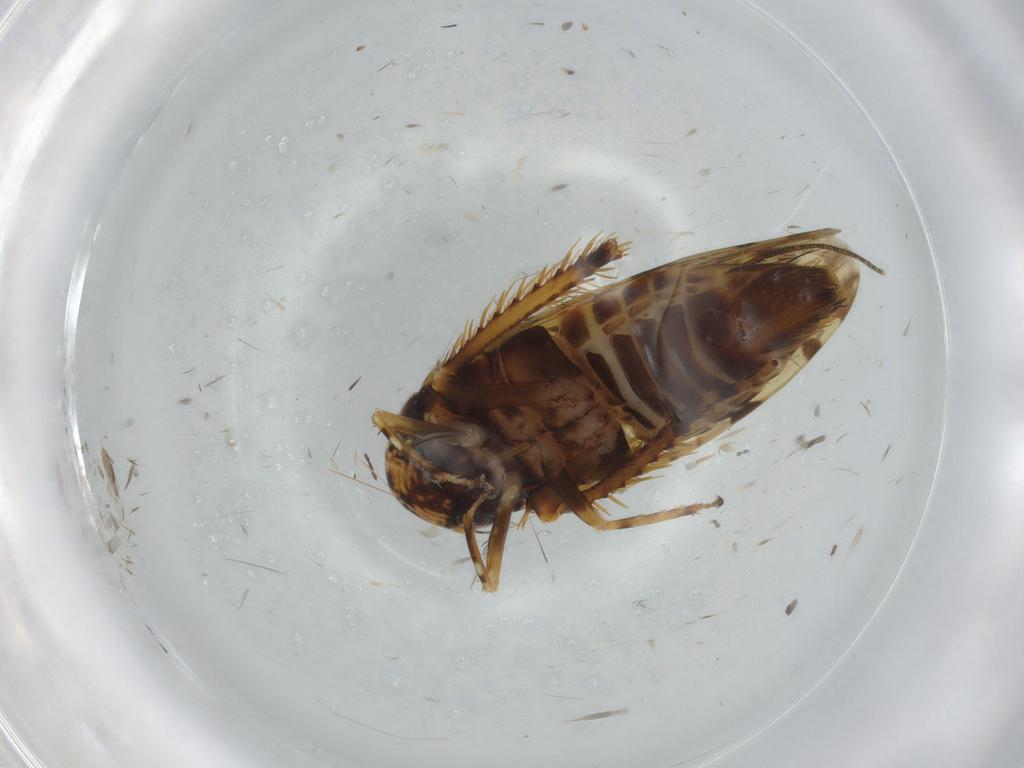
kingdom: Animalia
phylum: Arthropoda
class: Insecta
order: Hemiptera
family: Cicadellidae
